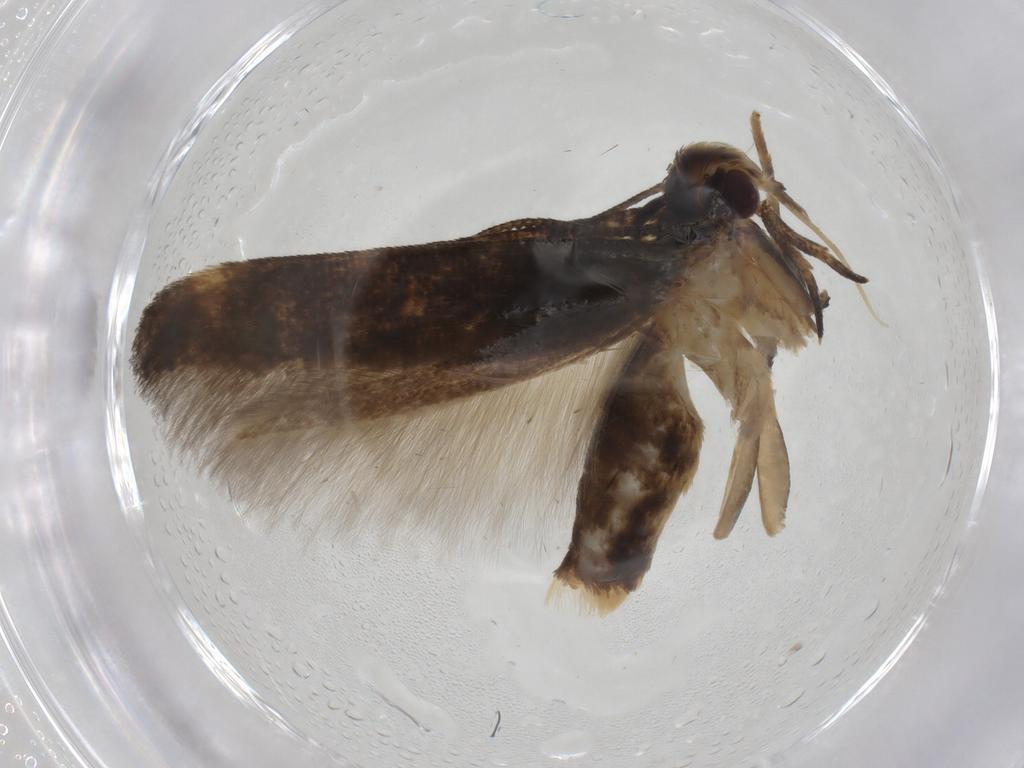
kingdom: Animalia
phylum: Arthropoda
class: Insecta
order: Lepidoptera
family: Coleophoridae
